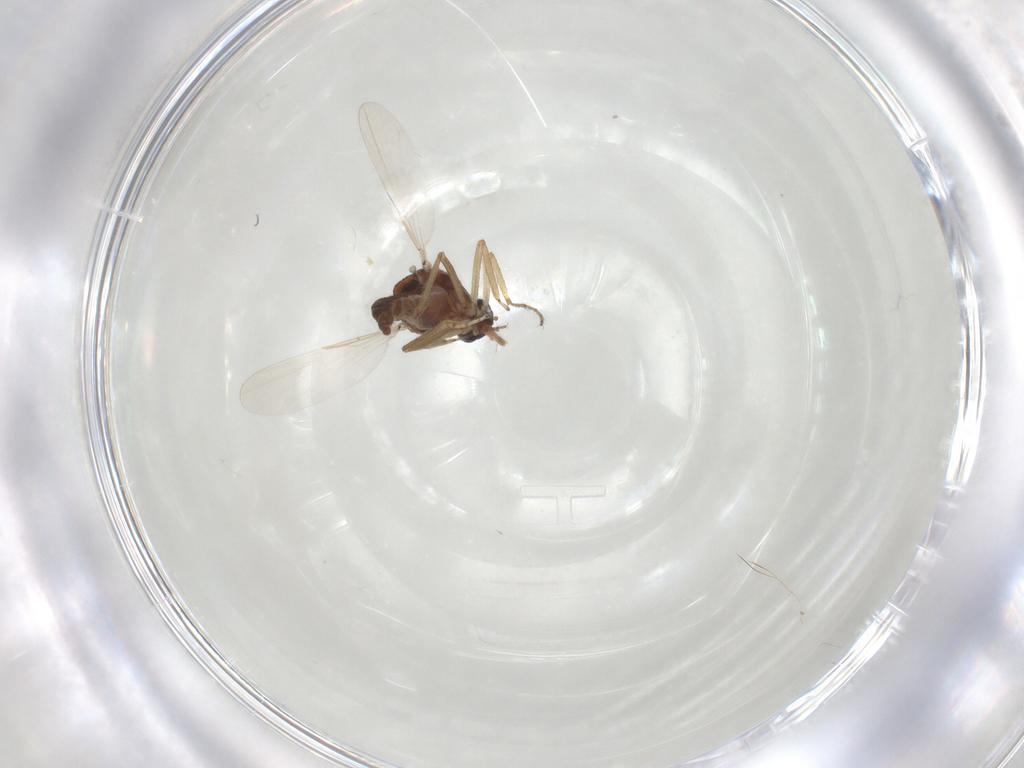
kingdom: Animalia
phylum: Arthropoda
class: Insecta
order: Diptera
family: Ceratopogonidae
